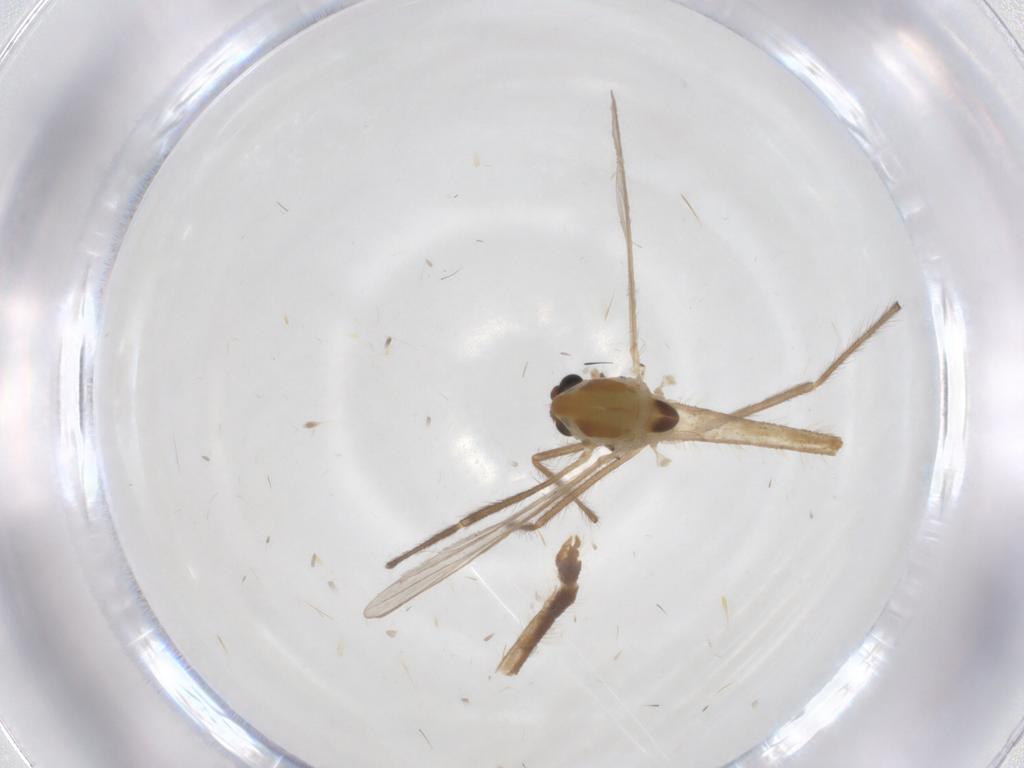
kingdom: Animalia
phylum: Arthropoda
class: Insecta
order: Diptera
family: Chironomidae
